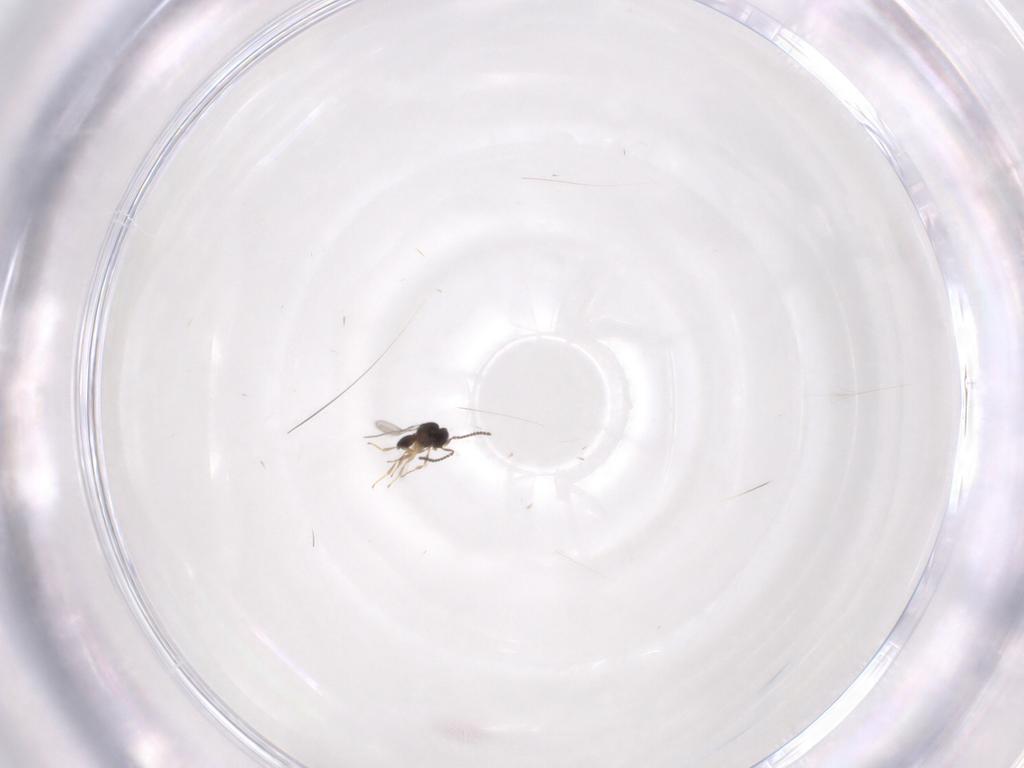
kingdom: Animalia
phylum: Arthropoda
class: Insecta
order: Hymenoptera
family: Scelionidae
